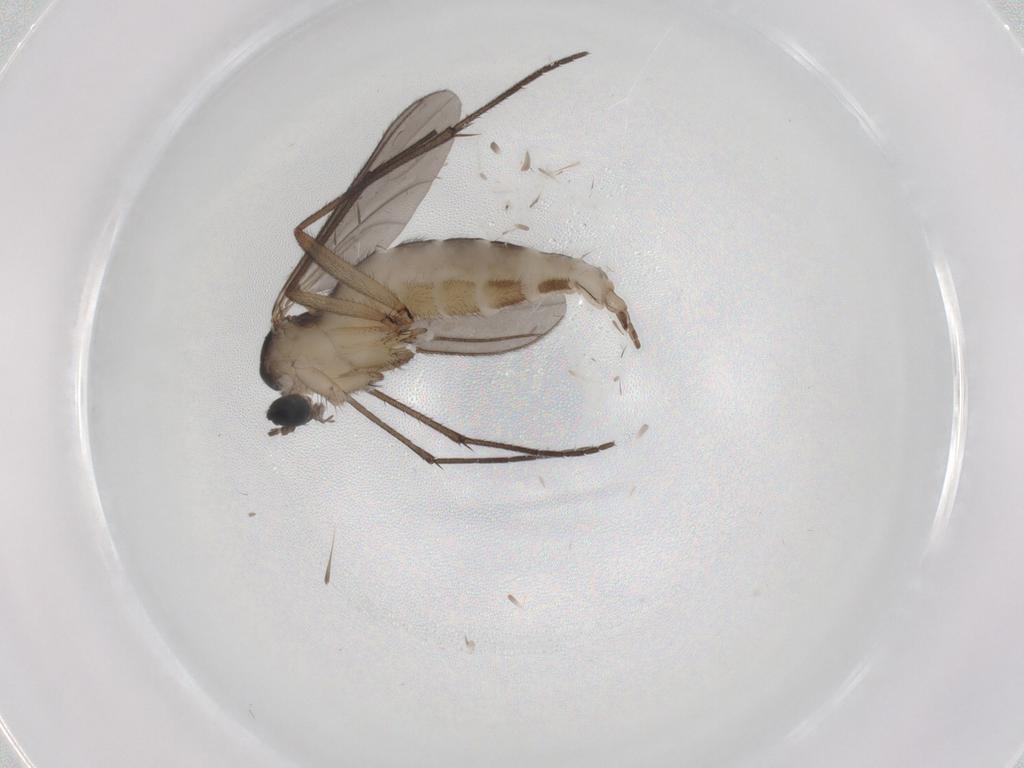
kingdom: Animalia
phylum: Arthropoda
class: Insecta
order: Diptera
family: Sciaridae
